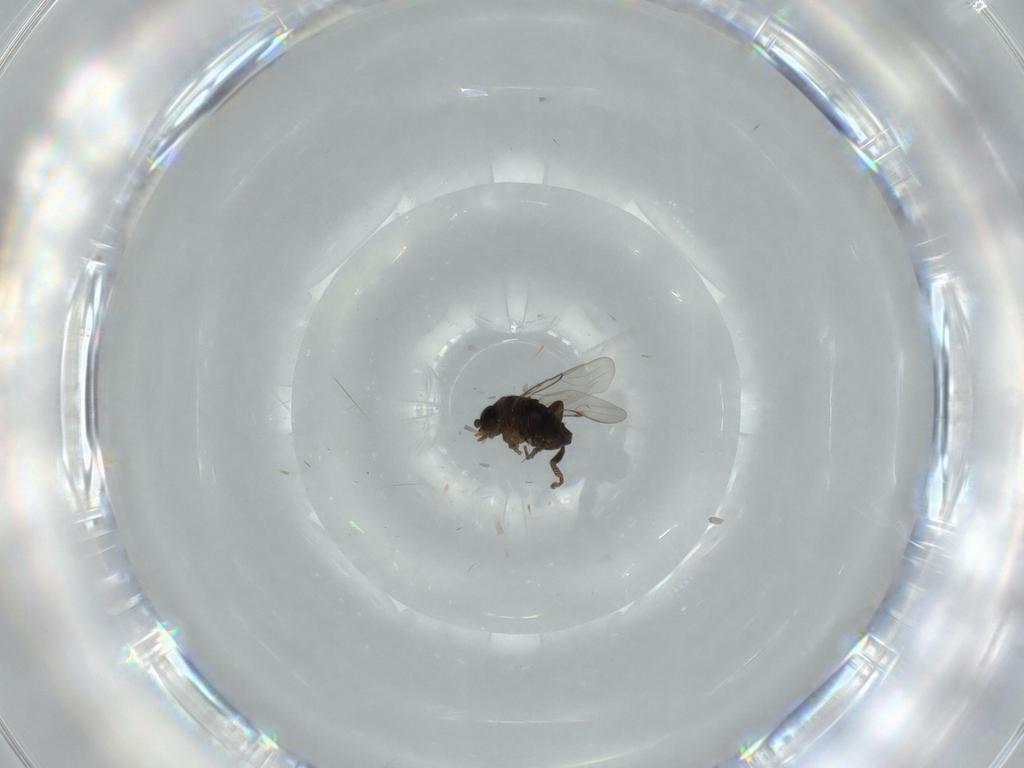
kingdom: Animalia
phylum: Arthropoda
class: Insecta
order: Diptera
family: Phoridae
